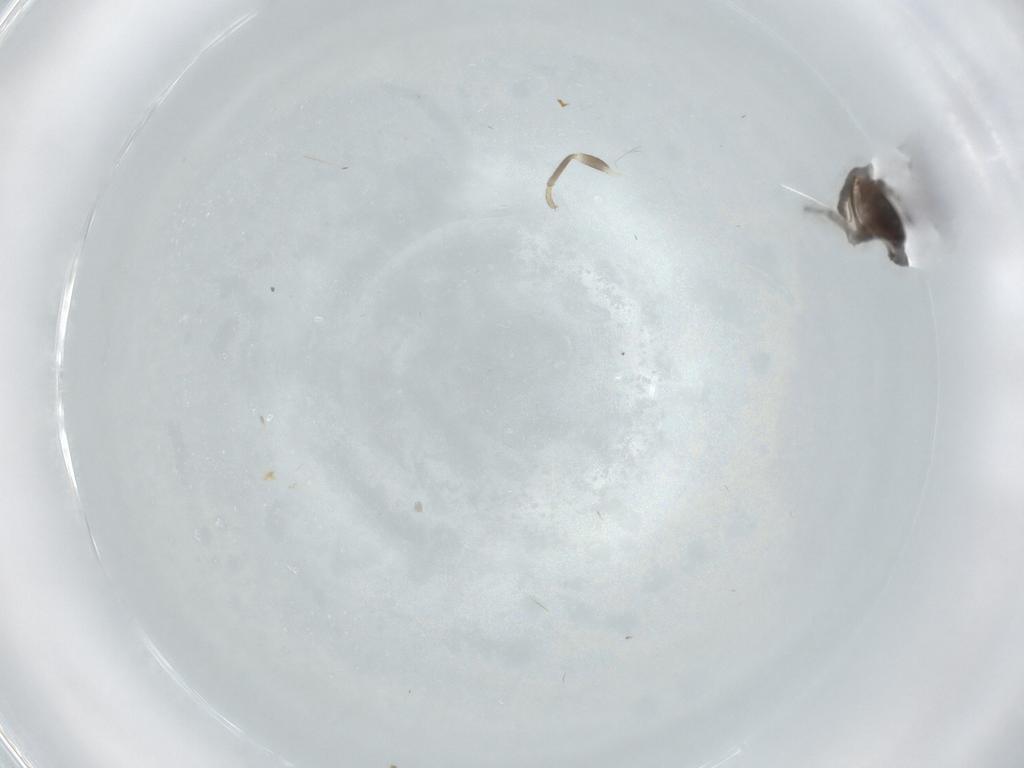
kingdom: Animalia
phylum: Arthropoda
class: Insecta
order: Hemiptera
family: Rhyparochromidae
